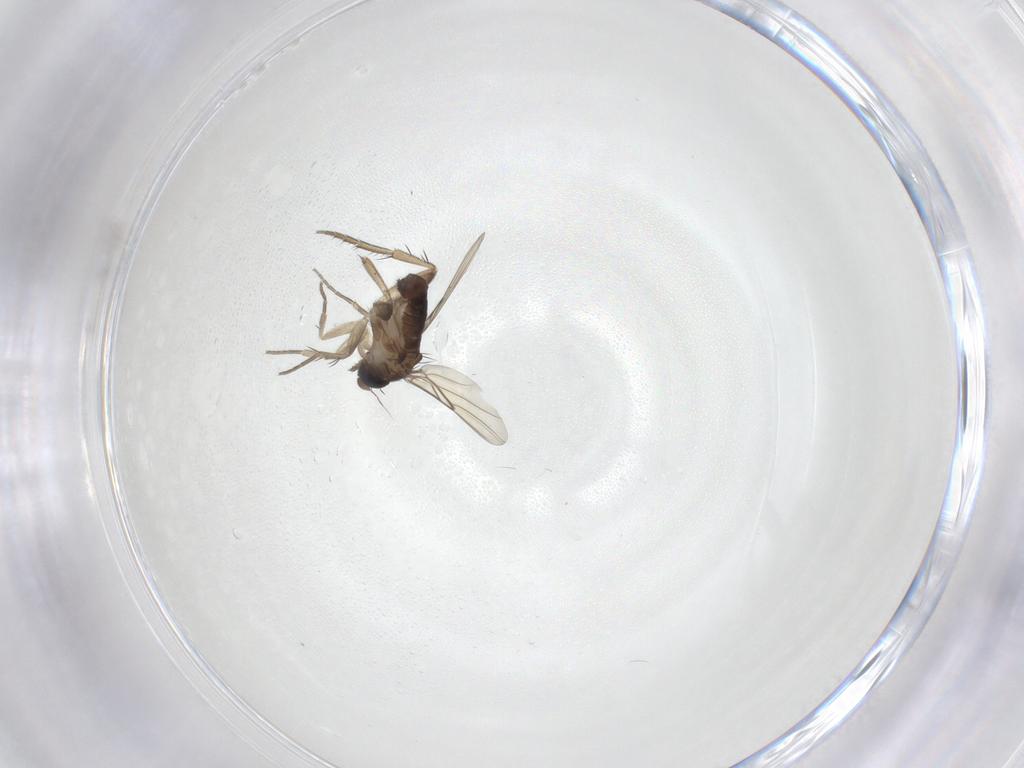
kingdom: Animalia
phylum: Arthropoda
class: Insecta
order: Diptera
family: Phoridae
